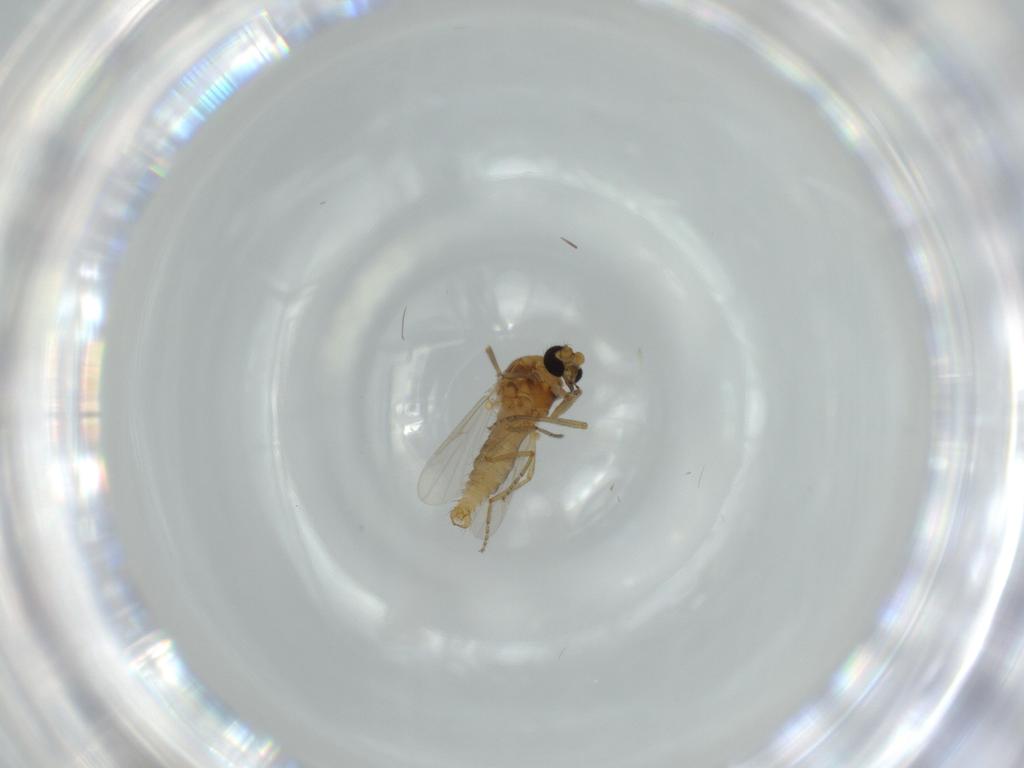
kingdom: Animalia
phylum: Arthropoda
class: Insecta
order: Diptera
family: Ceratopogonidae
